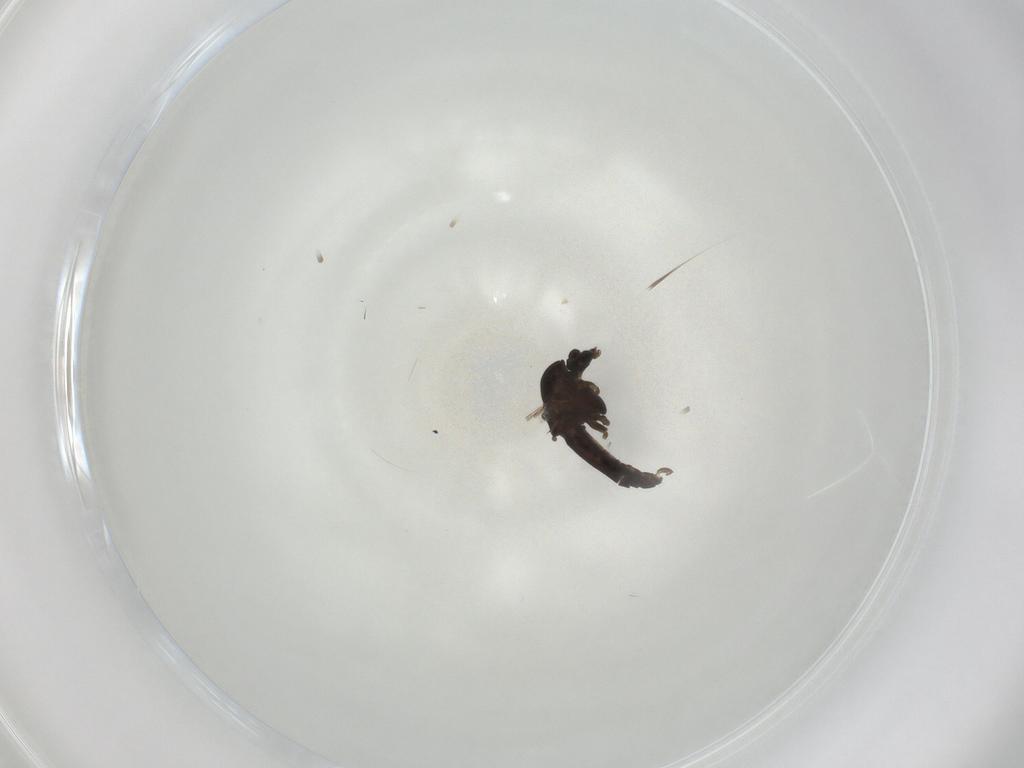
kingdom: Animalia
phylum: Arthropoda
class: Insecta
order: Diptera
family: Chironomidae
